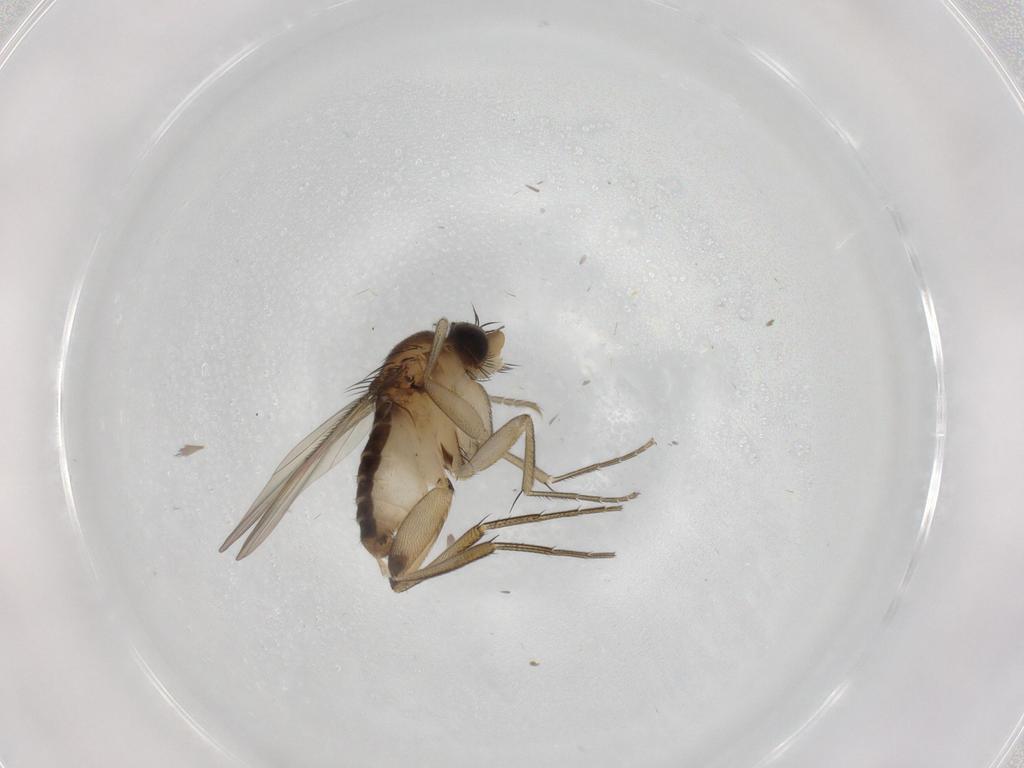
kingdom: Animalia
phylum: Arthropoda
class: Insecta
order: Diptera
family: Phoridae
